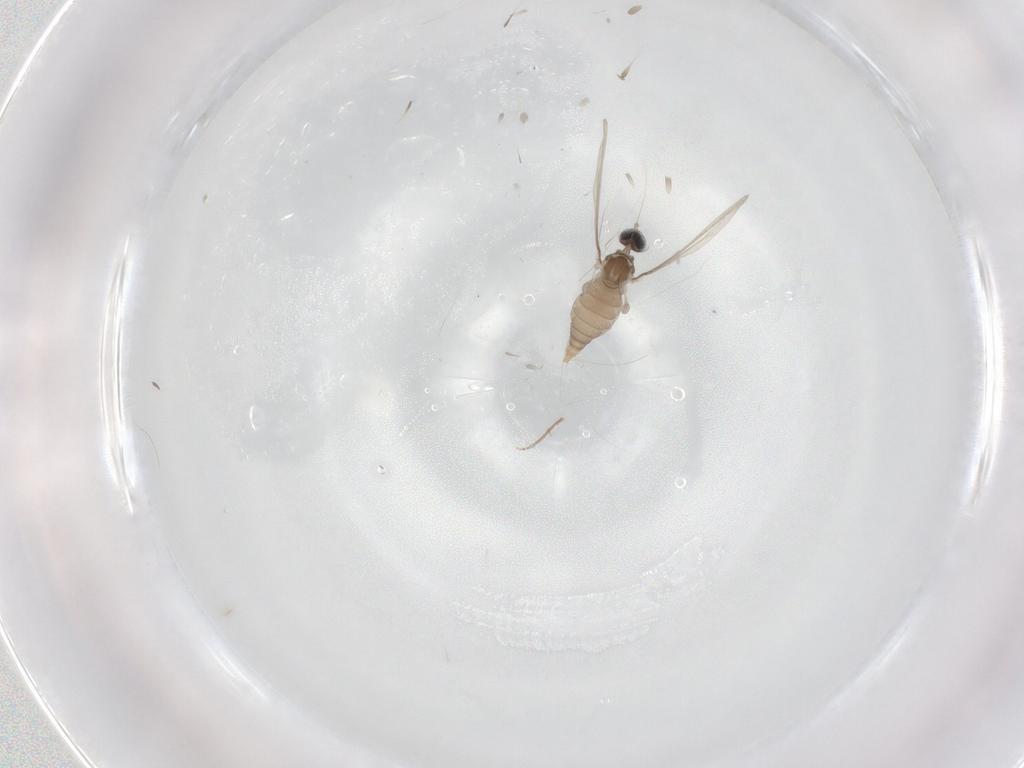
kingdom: Animalia
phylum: Arthropoda
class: Insecta
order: Diptera
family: Cecidomyiidae
